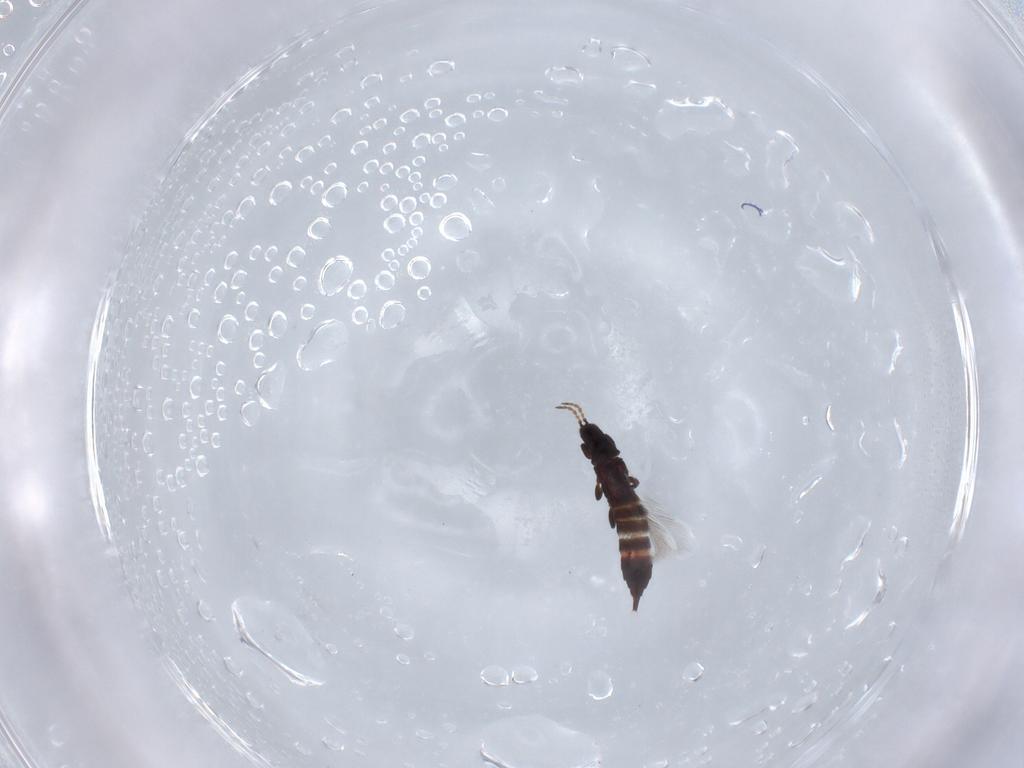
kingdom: Animalia
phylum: Arthropoda
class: Insecta
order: Thysanoptera
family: Phlaeothripidae
